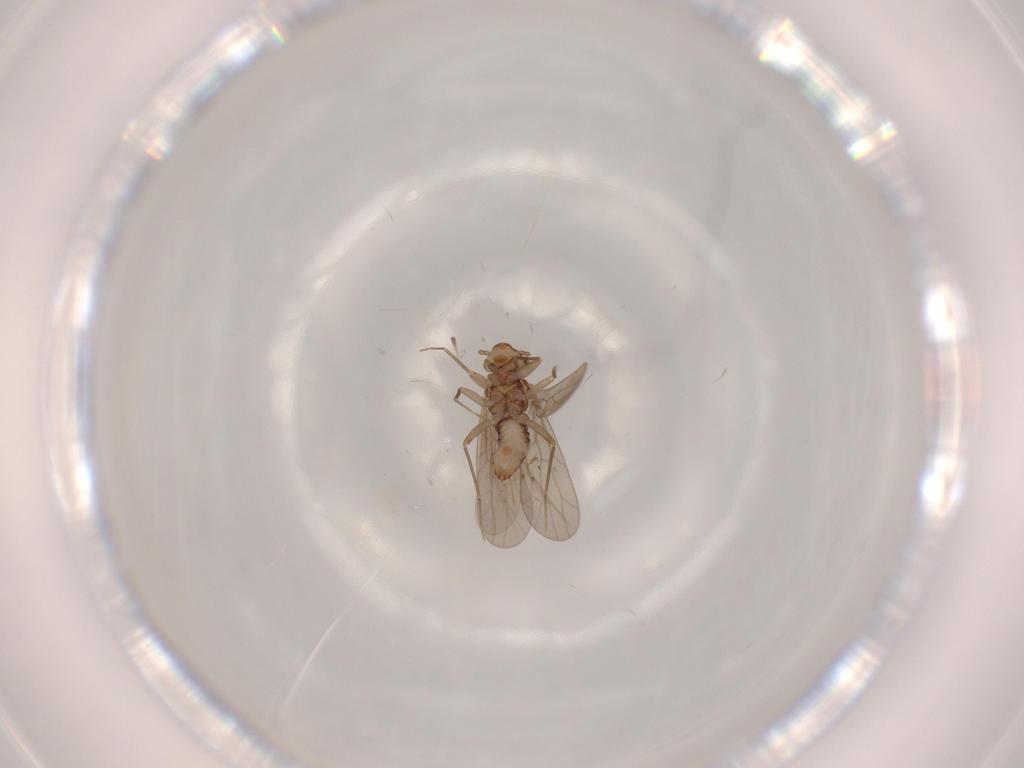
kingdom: Animalia
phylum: Arthropoda
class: Insecta
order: Psocodea
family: Lepidopsocidae
